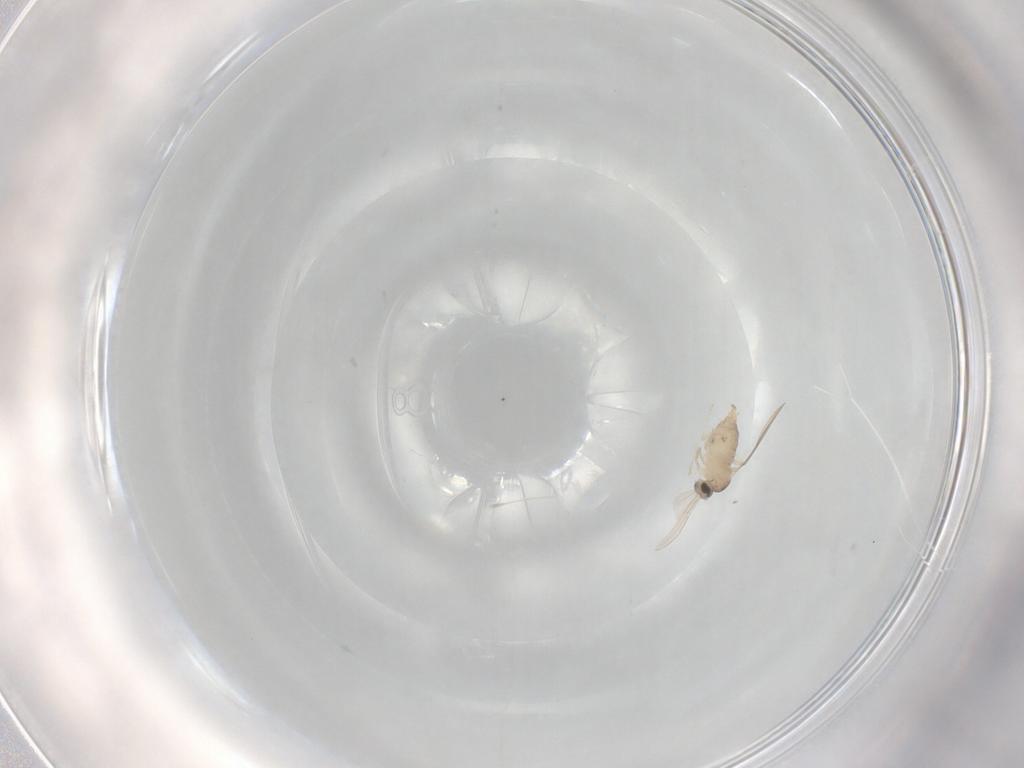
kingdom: Animalia
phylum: Arthropoda
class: Insecta
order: Diptera
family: Cecidomyiidae
